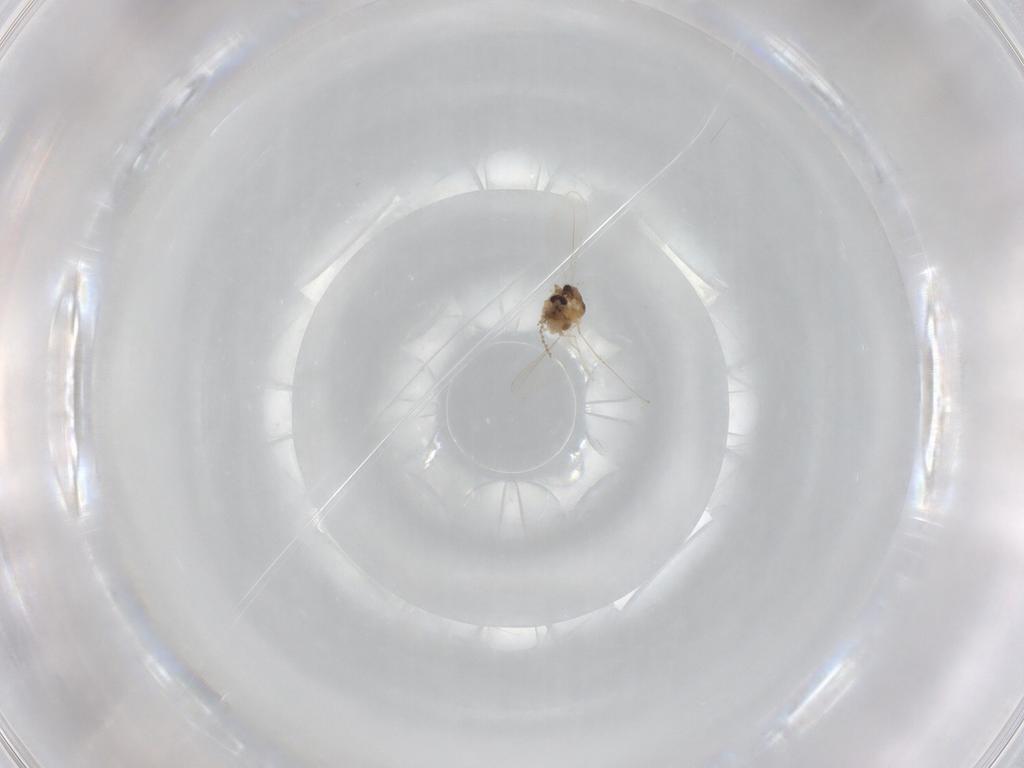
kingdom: Animalia
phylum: Arthropoda
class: Insecta
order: Diptera
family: Cecidomyiidae
